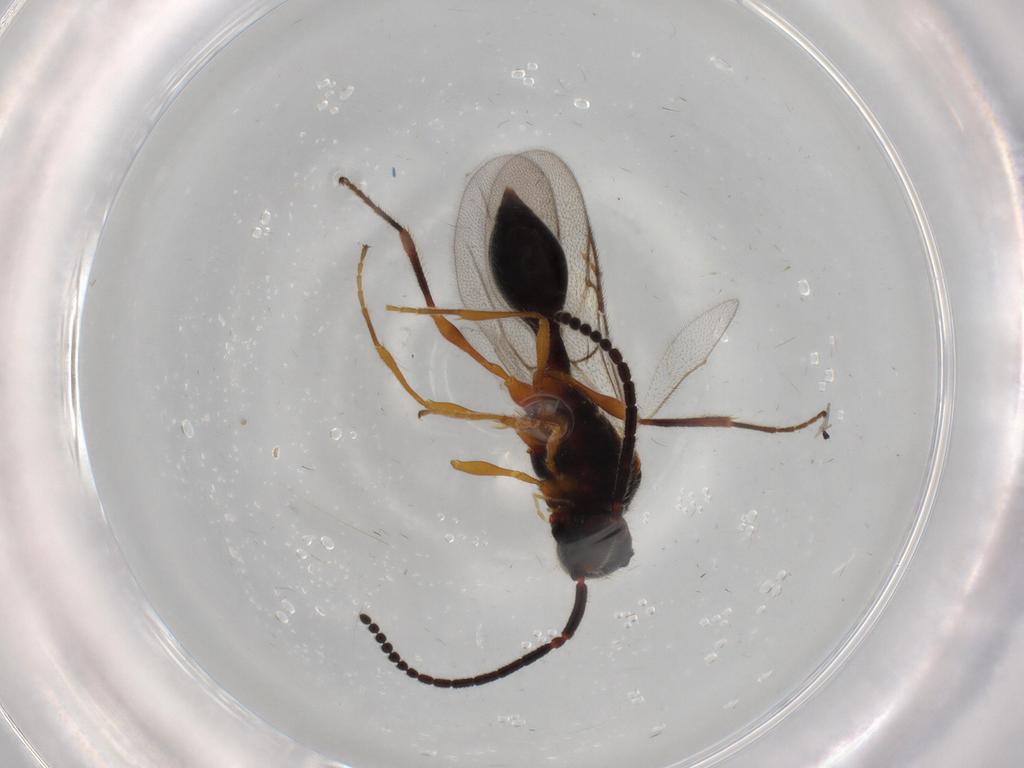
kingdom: Animalia
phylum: Arthropoda
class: Insecta
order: Hymenoptera
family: Diapriidae
